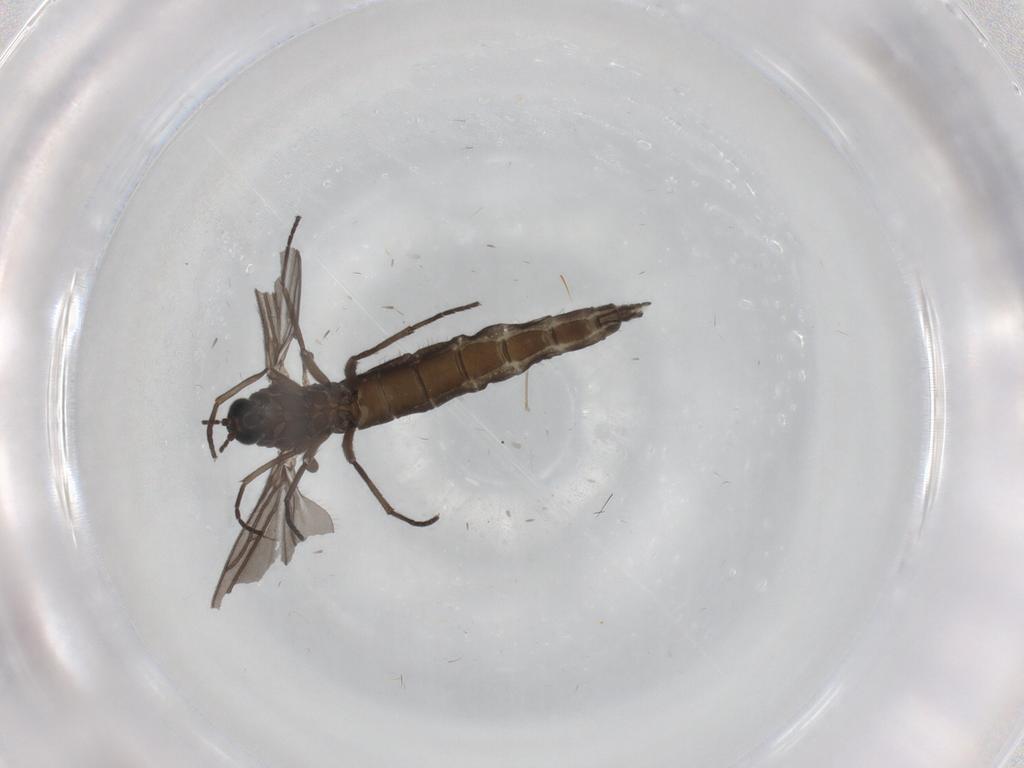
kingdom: Animalia
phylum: Arthropoda
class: Insecta
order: Diptera
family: Sciaridae
